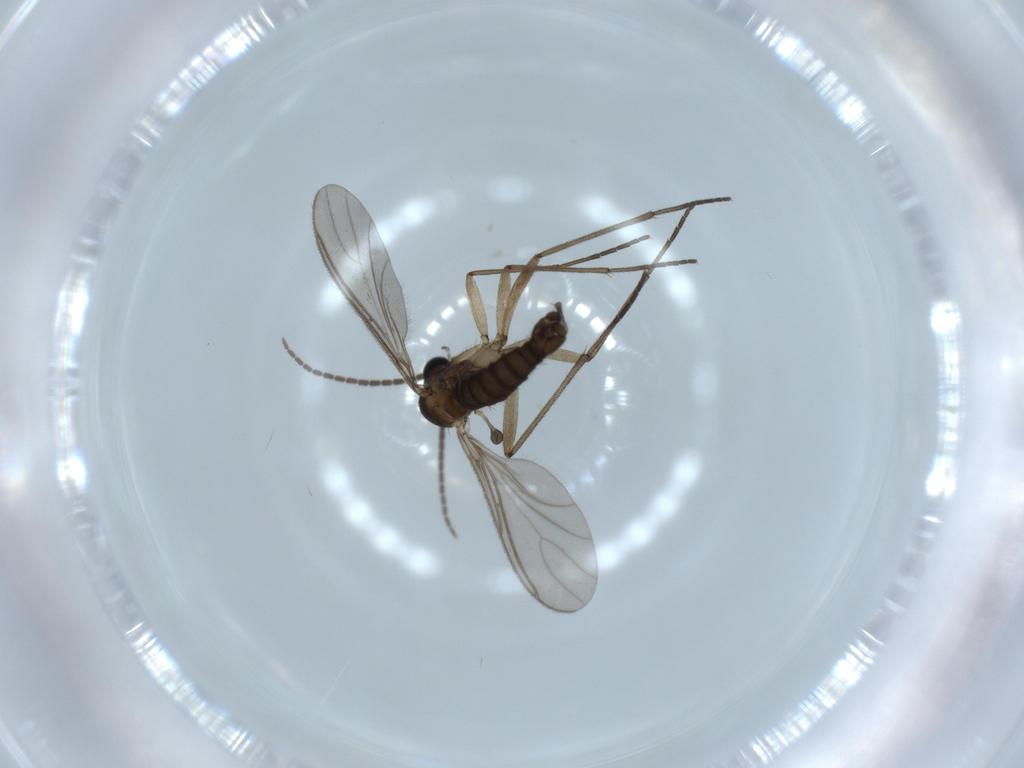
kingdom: Animalia
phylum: Arthropoda
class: Insecta
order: Diptera
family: Sciaridae
